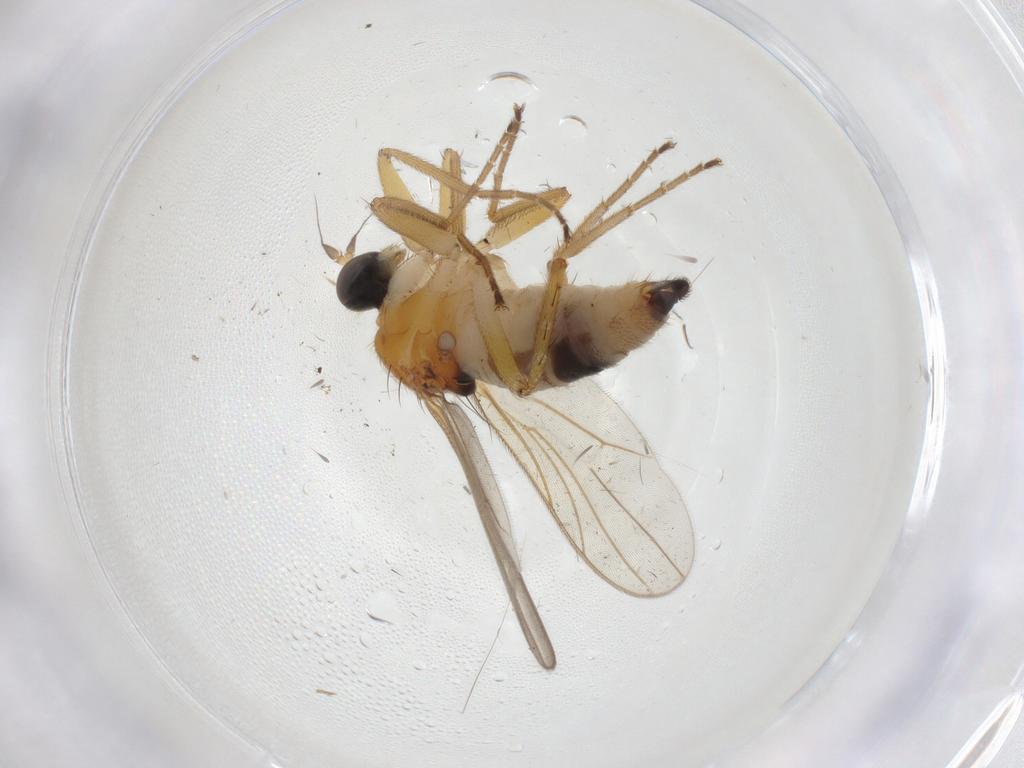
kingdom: Animalia
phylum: Arthropoda
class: Insecta
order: Diptera
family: Hybotidae
